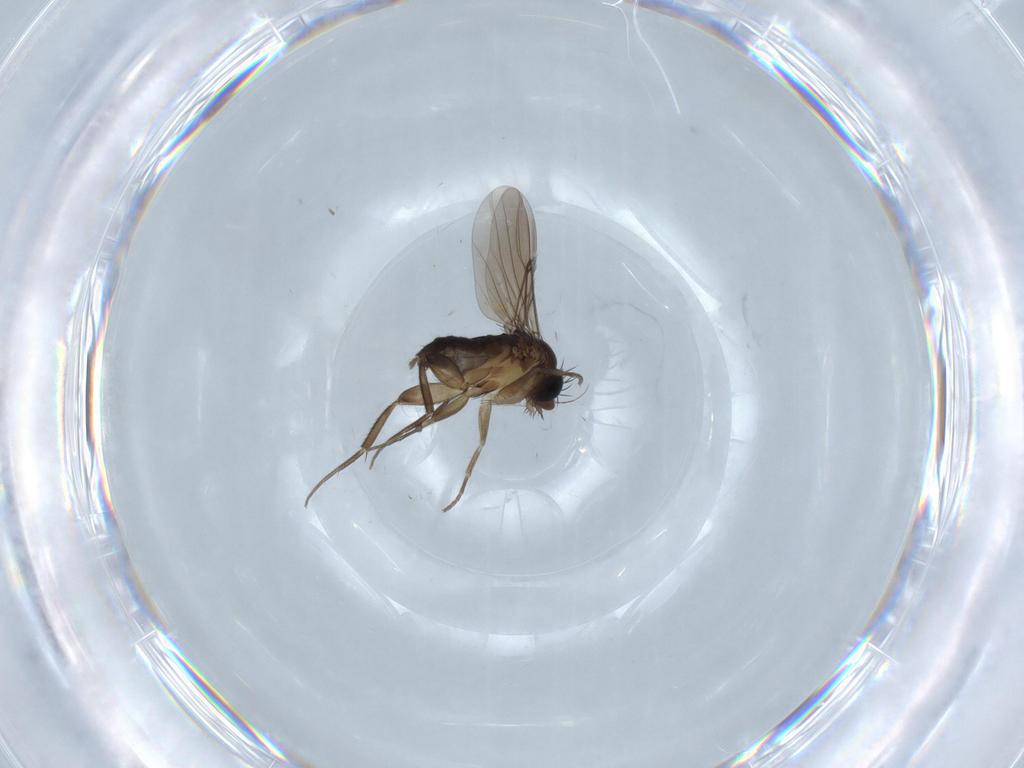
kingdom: Animalia
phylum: Arthropoda
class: Insecta
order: Diptera
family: Phoridae
